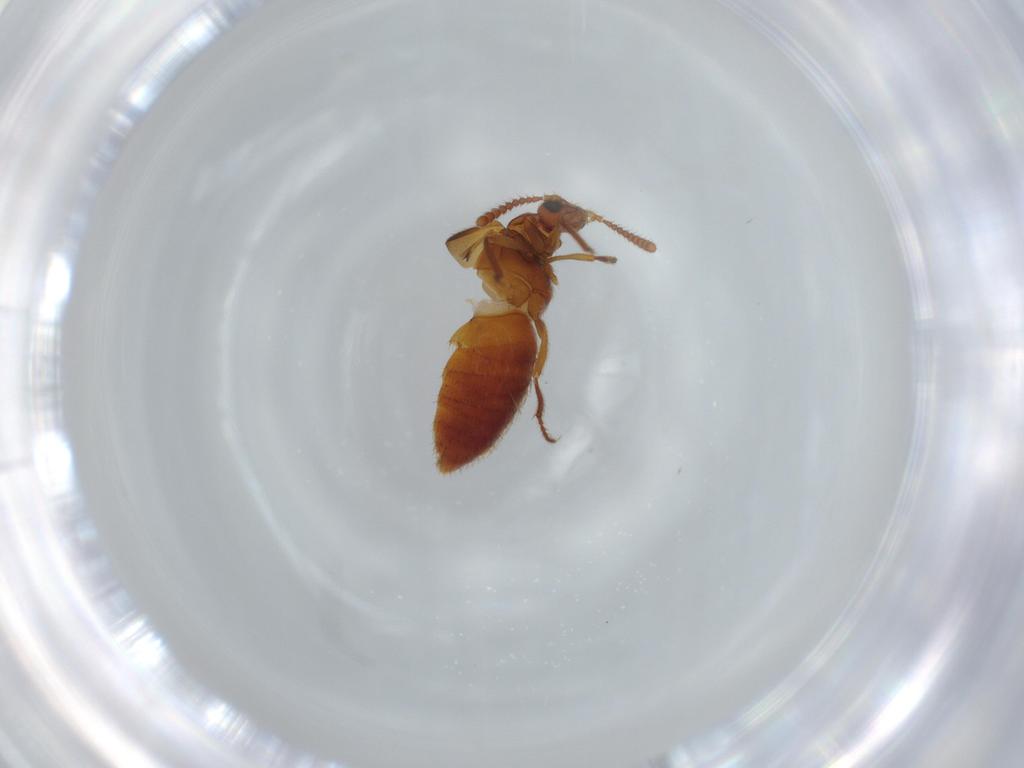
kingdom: Animalia
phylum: Arthropoda
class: Insecta
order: Coleoptera
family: Staphylinidae
